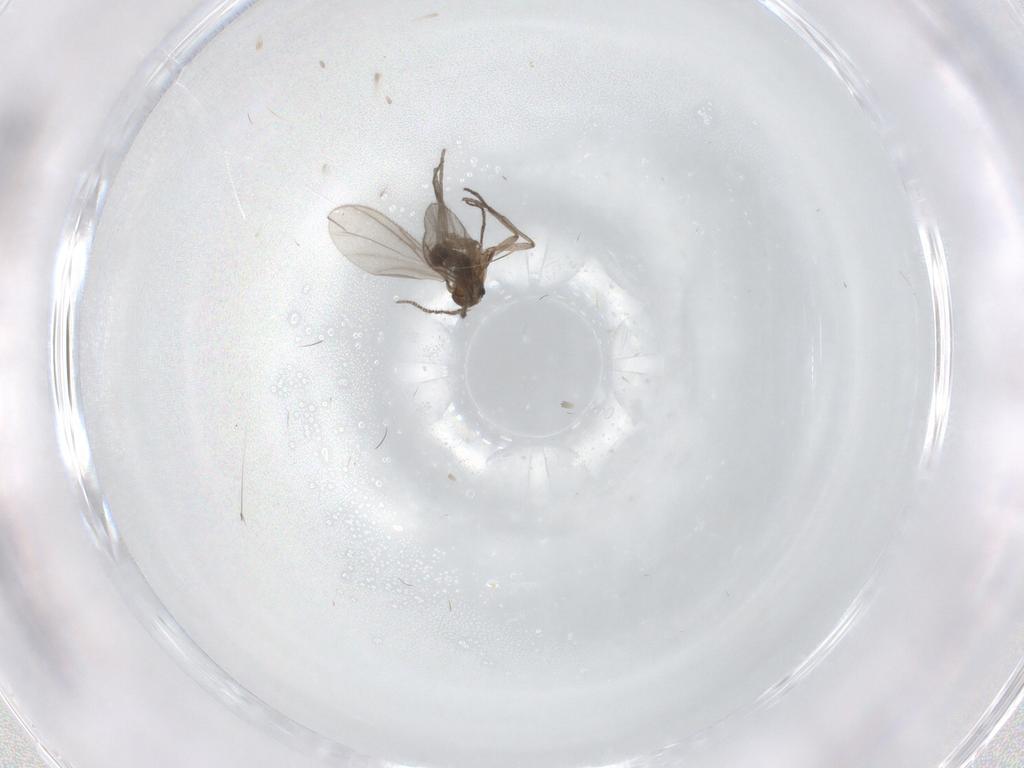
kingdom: Animalia
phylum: Arthropoda
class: Insecta
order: Diptera
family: Sciaridae
